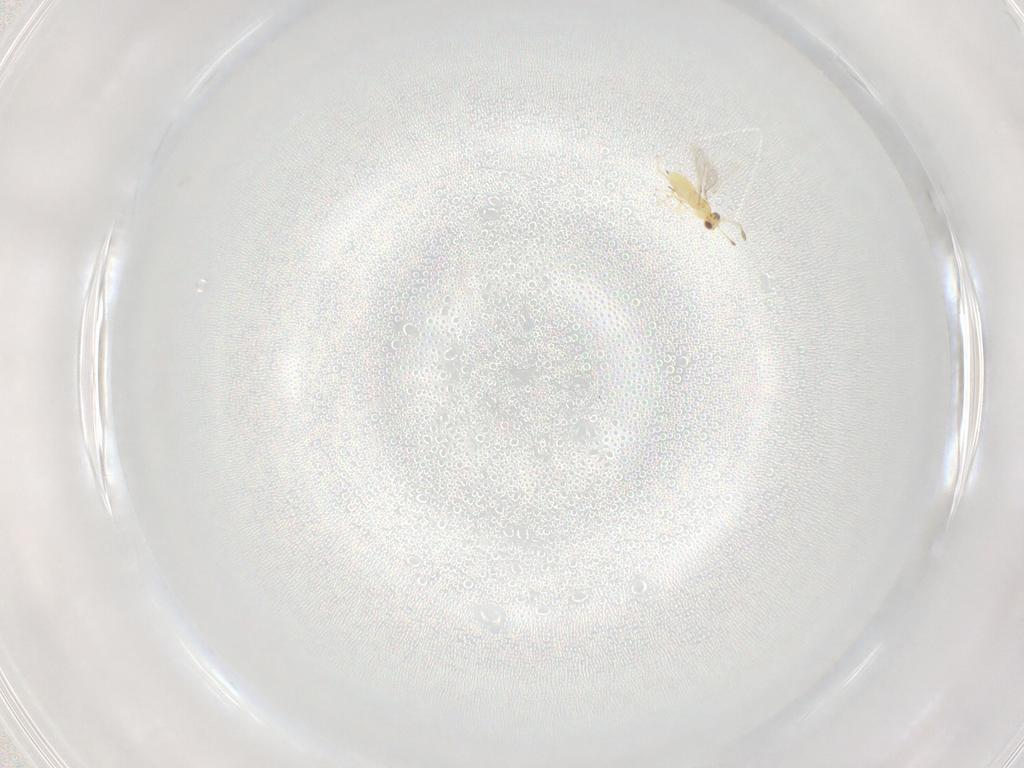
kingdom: Animalia
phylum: Arthropoda
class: Insecta
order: Hymenoptera
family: Mymaridae
